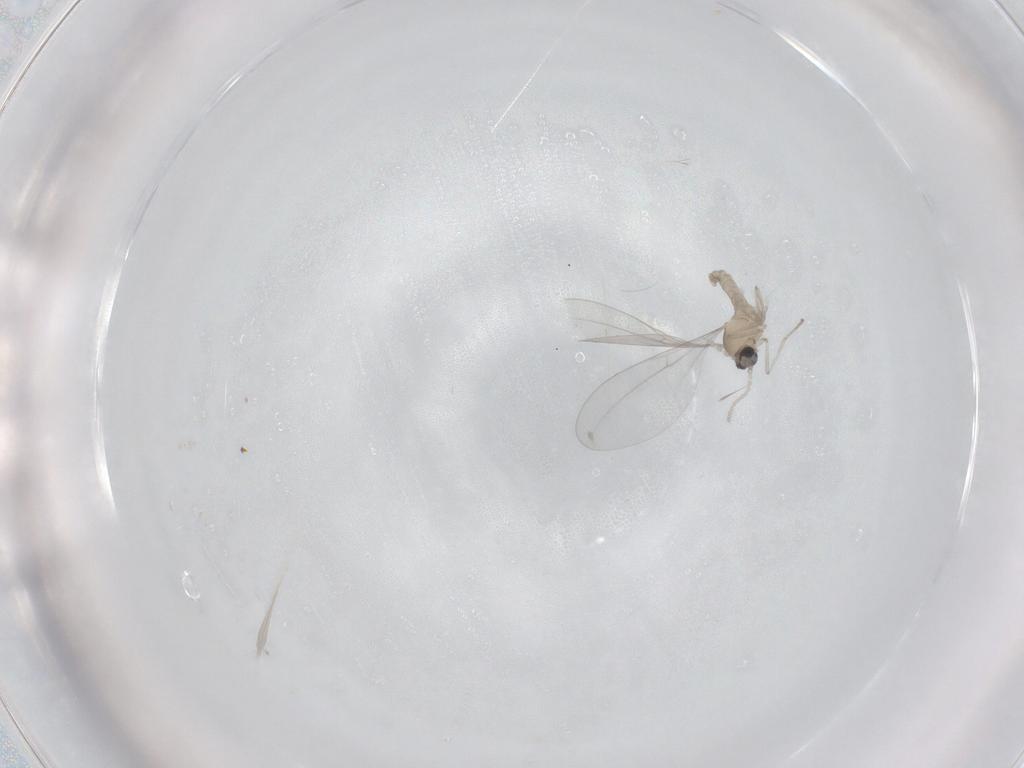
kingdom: Animalia
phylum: Arthropoda
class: Insecta
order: Diptera
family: Cecidomyiidae
